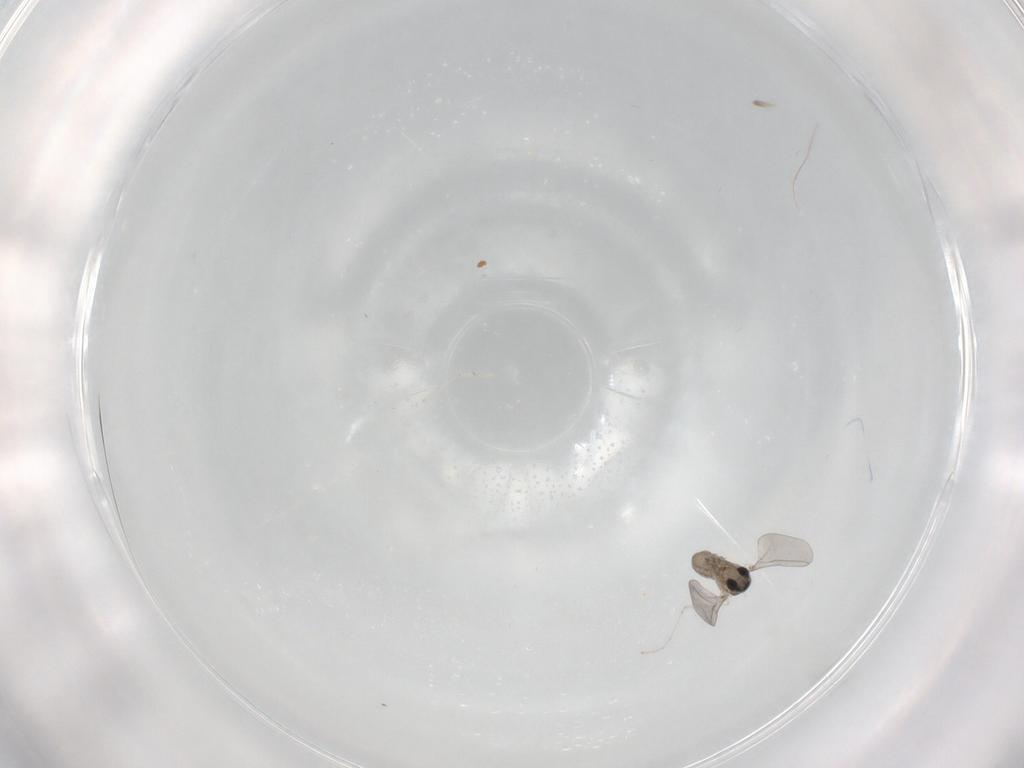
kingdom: Animalia
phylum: Arthropoda
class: Insecta
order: Diptera
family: Cecidomyiidae
